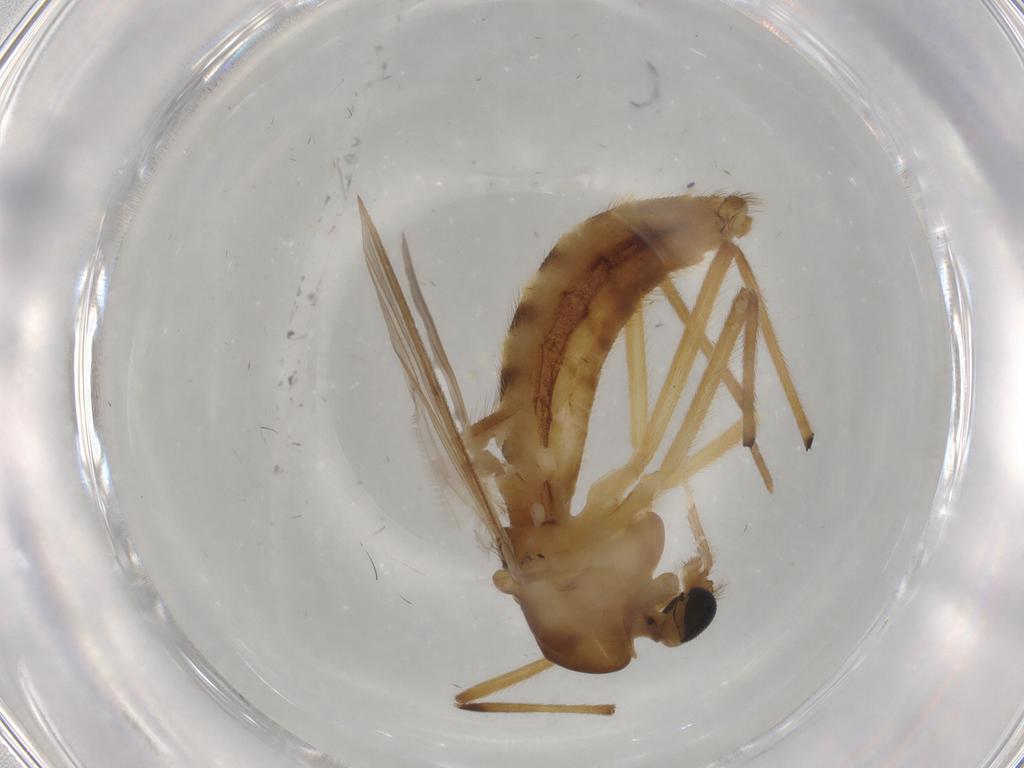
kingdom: Animalia
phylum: Arthropoda
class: Insecta
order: Diptera
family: Chironomidae
